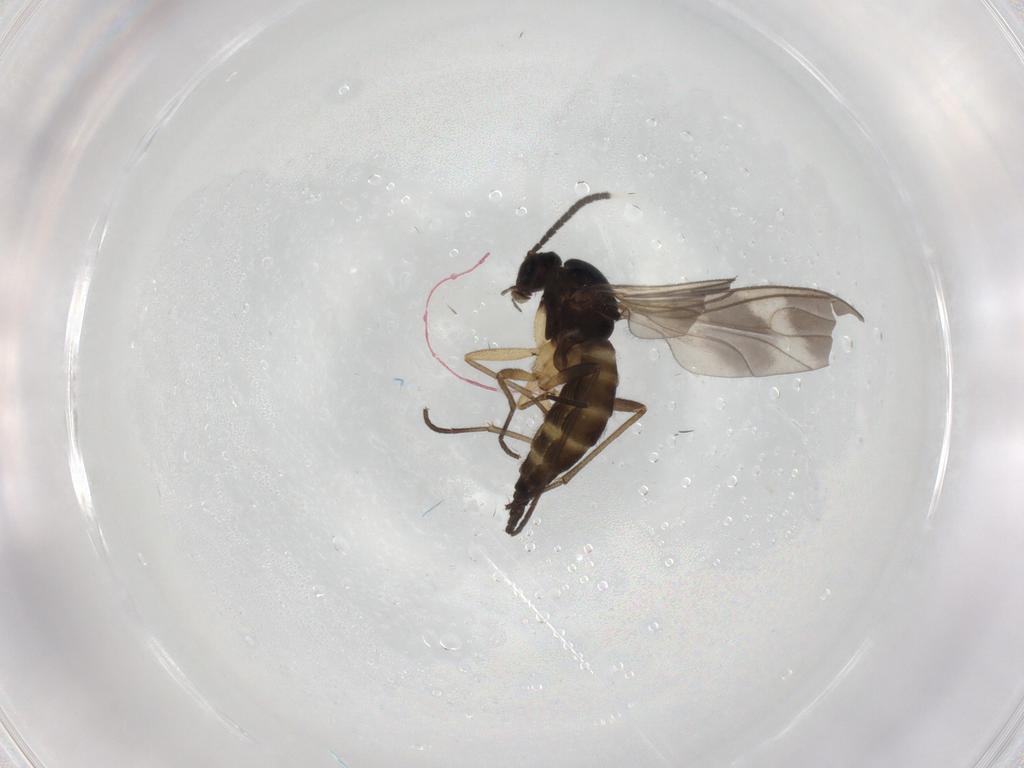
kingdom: Animalia
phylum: Arthropoda
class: Insecta
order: Diptera
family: Sciaridae
